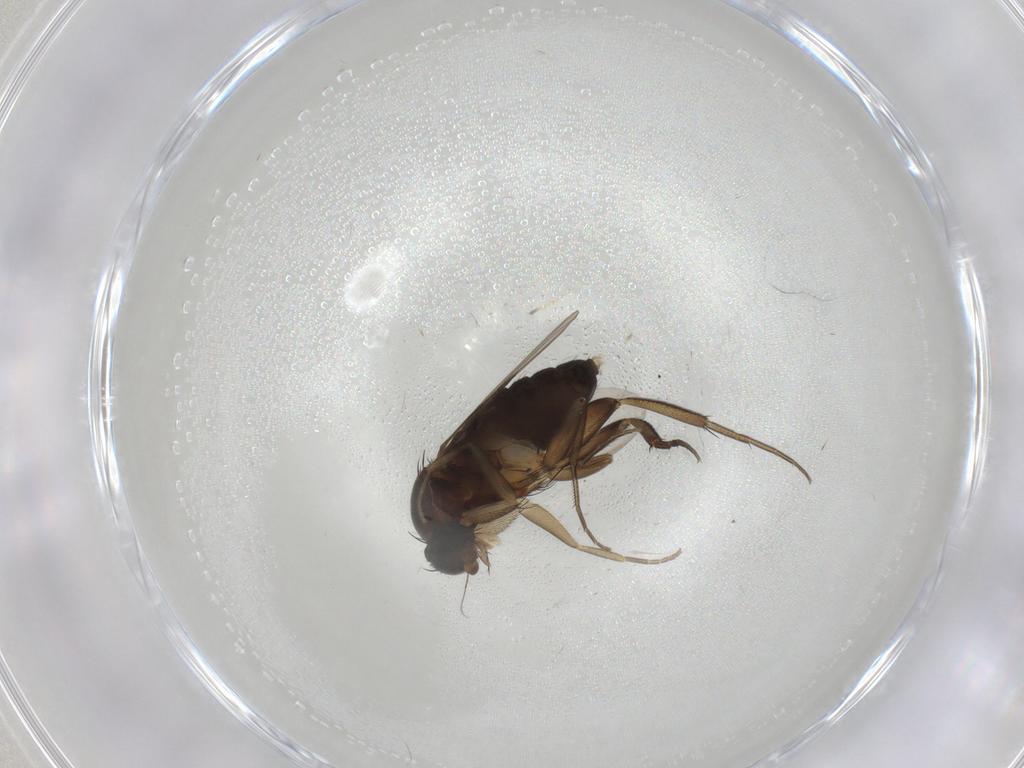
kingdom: Animalia
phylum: Arthropoda
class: Insecta
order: Diptera
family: Phoridae
